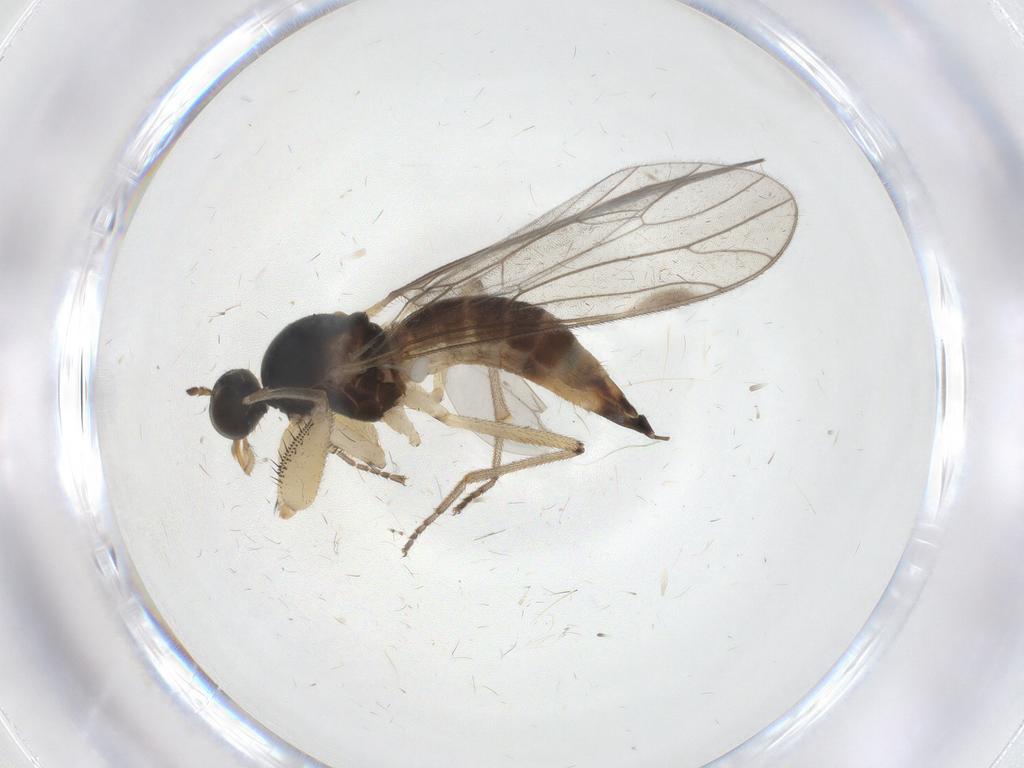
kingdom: Animalia
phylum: Arthropoda
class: Insecta
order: Diptera
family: Empididae
